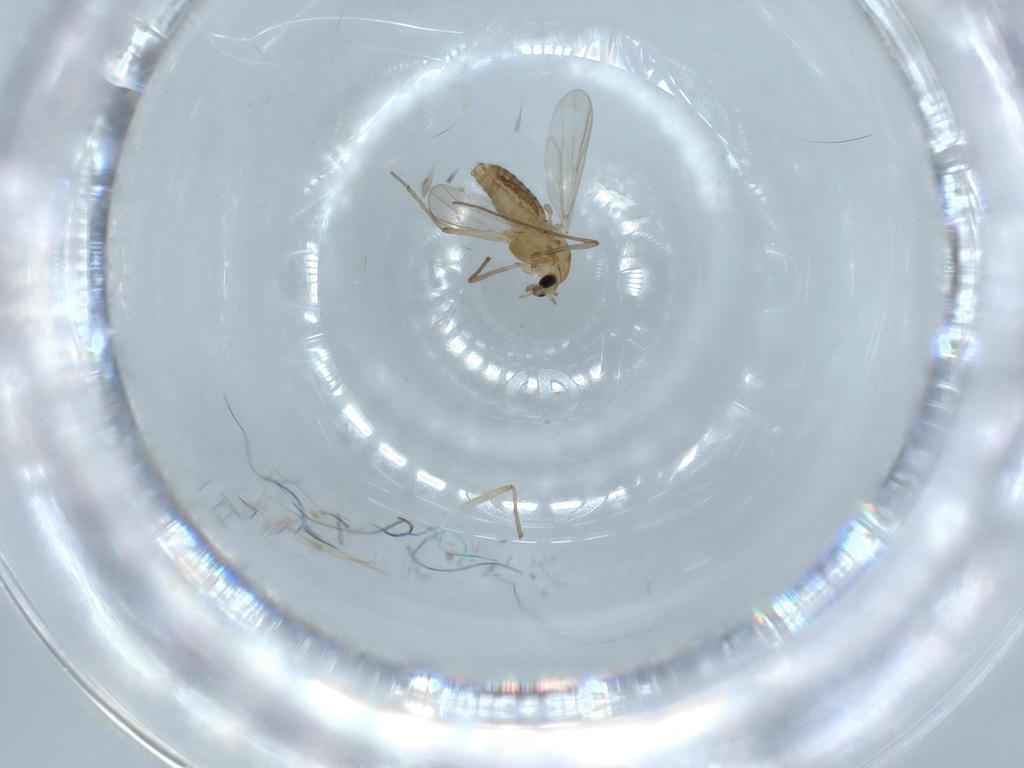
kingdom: Animalia
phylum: Arthropoda
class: Insecta
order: Diptera
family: Chironomidae
